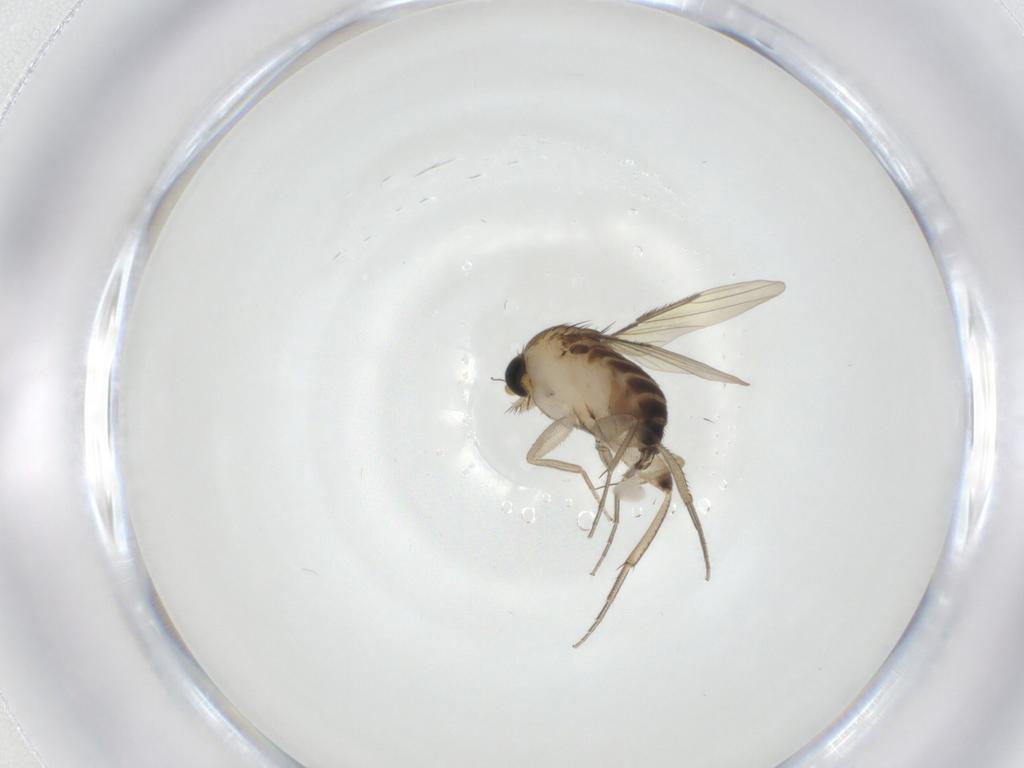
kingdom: Animalia
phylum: Arthropoda
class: Insecta
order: Diptera
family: Phoridae
